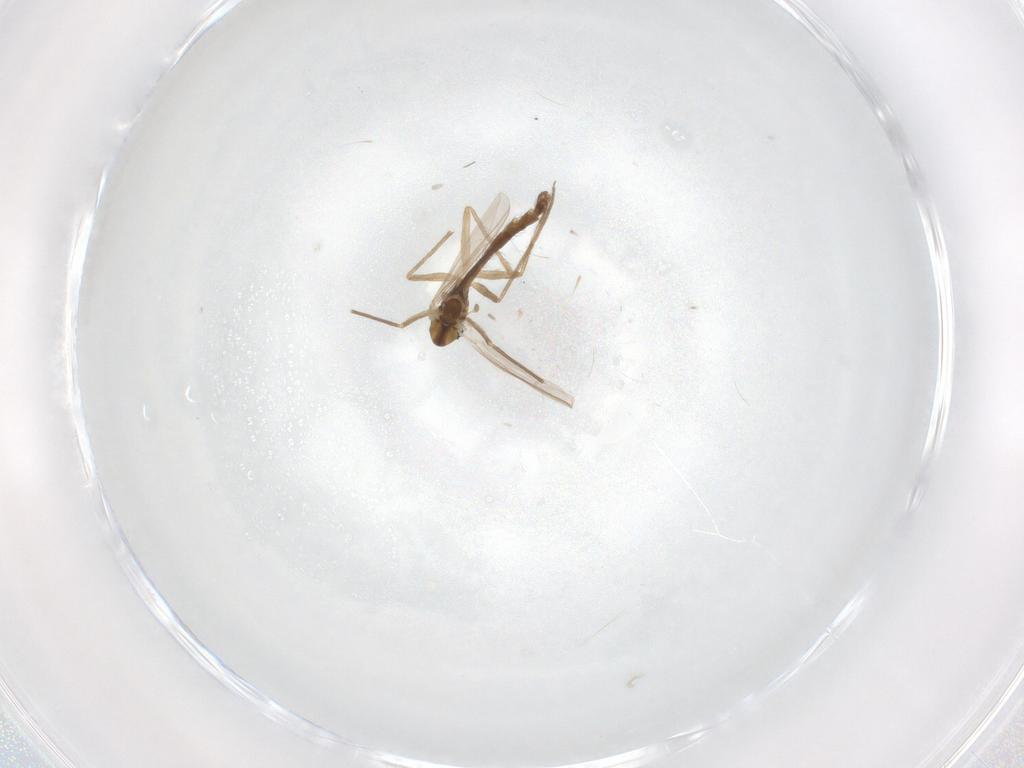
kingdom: Animalia
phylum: Arthropoda
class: Insecta
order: Diptera
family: Chironomidae
